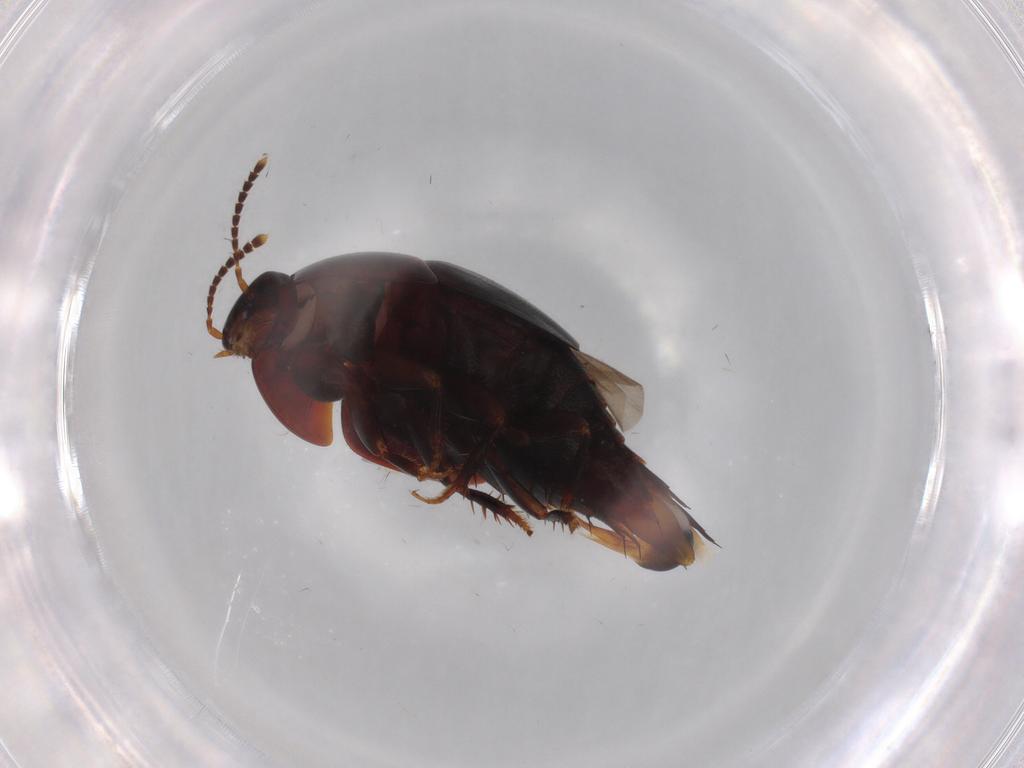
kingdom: Animalia
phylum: Arthropoda
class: Insecta
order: Coleoptera
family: Staphylinidae
